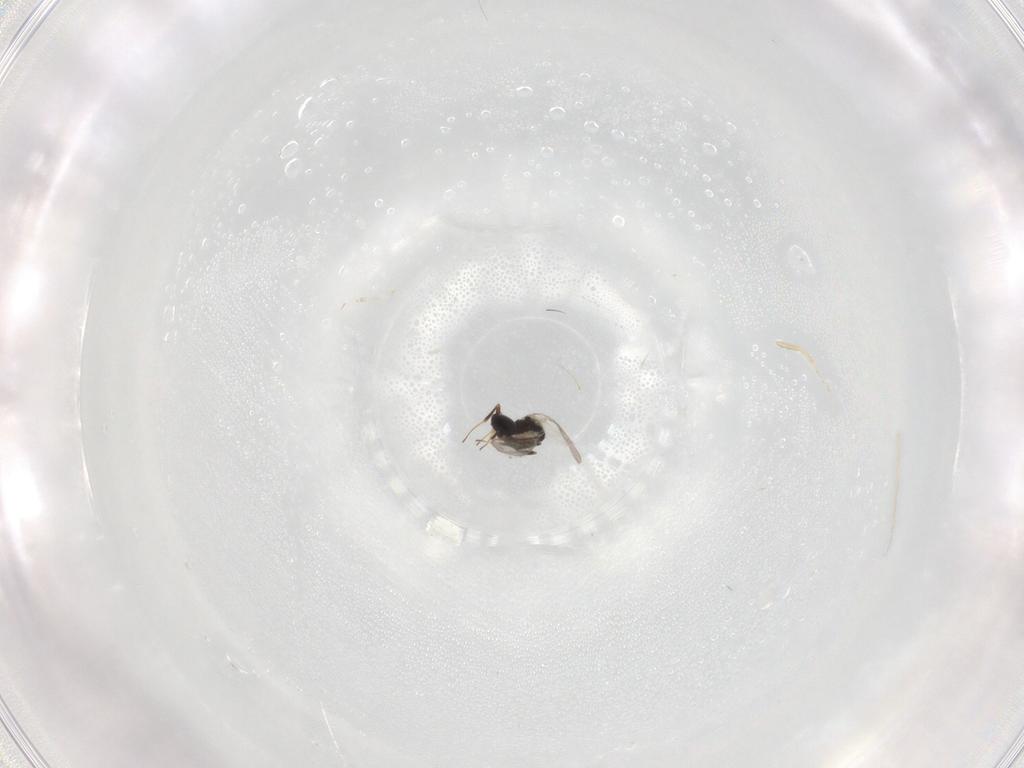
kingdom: Animalia
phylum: Arthropoda
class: Insecta
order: Hymenoptera
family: Scelionidae
